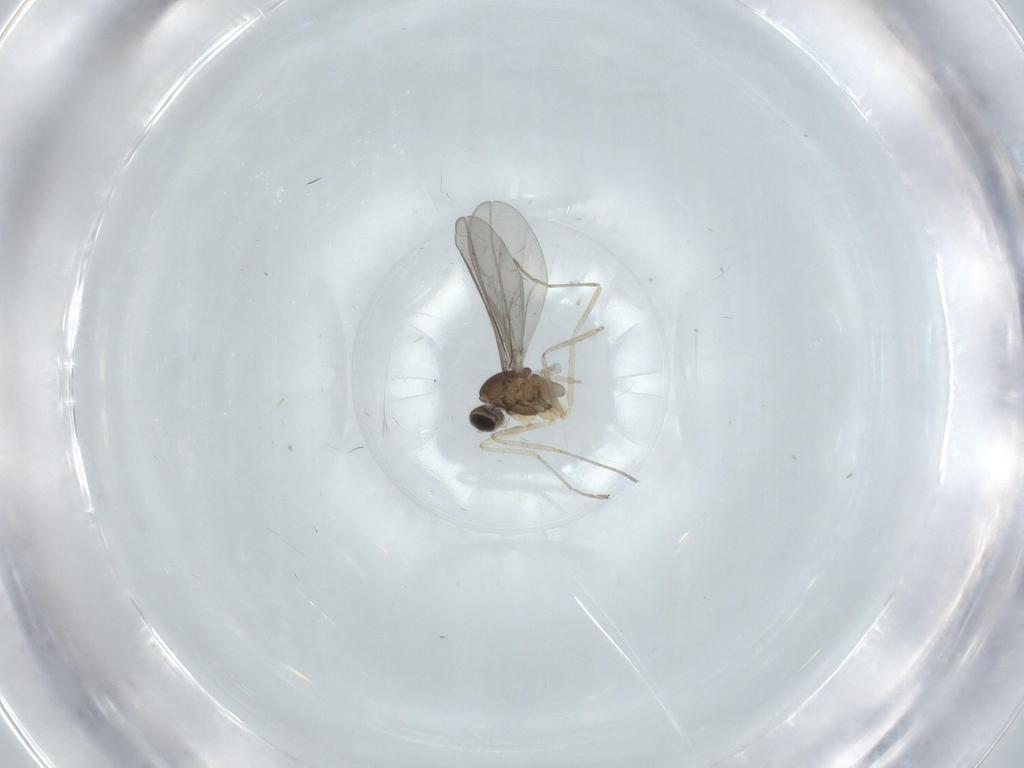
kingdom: Animalia
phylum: Arthropoda
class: Insecta
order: Diptera
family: Cecidomyiidae
